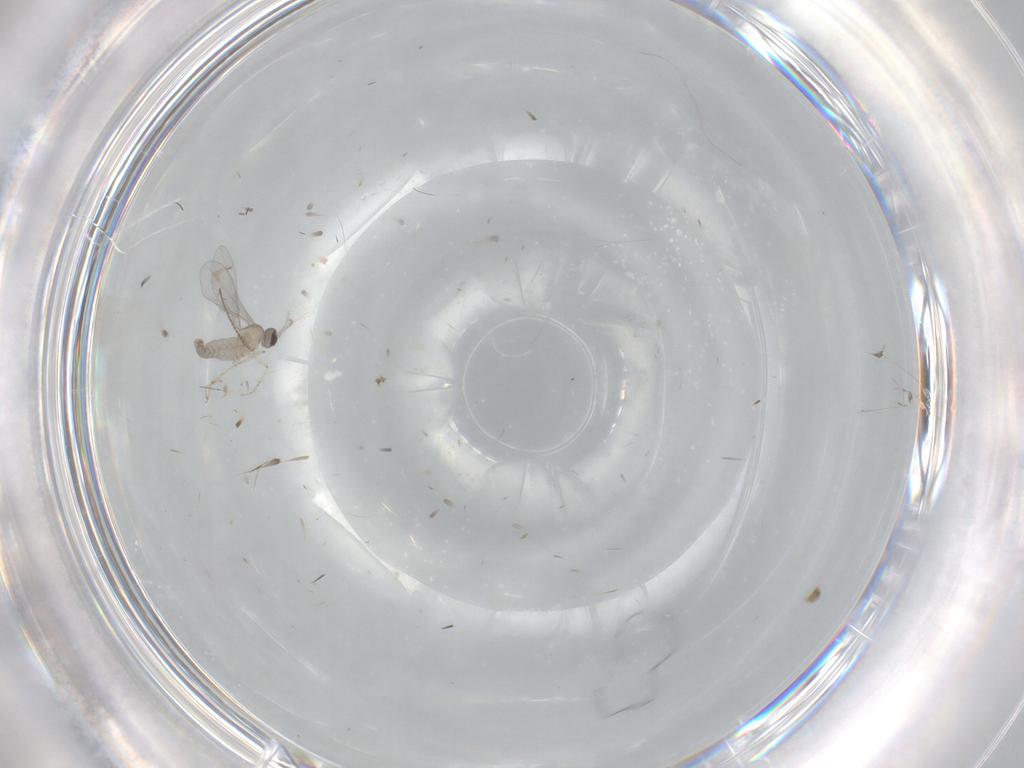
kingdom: Animalia
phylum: Arthropoda
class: Insecta
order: Diptera
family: Cecidomyiidae
